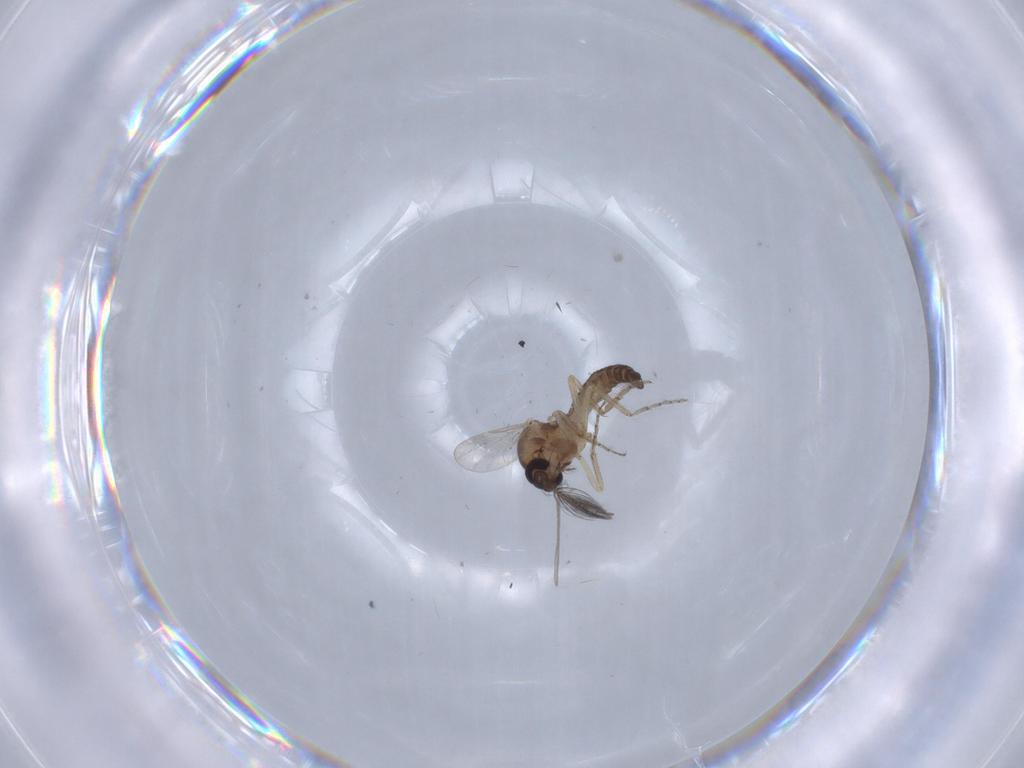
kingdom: Animalia
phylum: Arthropoda
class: Insecta
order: Diptera
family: Ceratopogonidae
